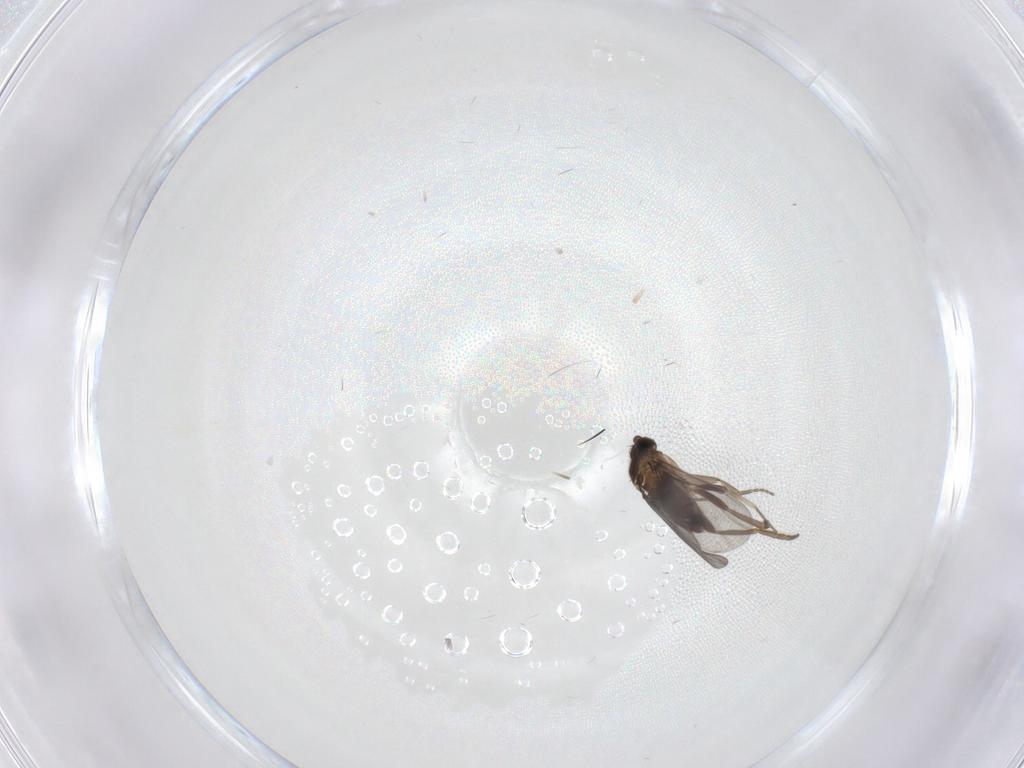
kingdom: Animalia
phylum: Arthropoda
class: Insecta
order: Diptera
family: Phoridae
